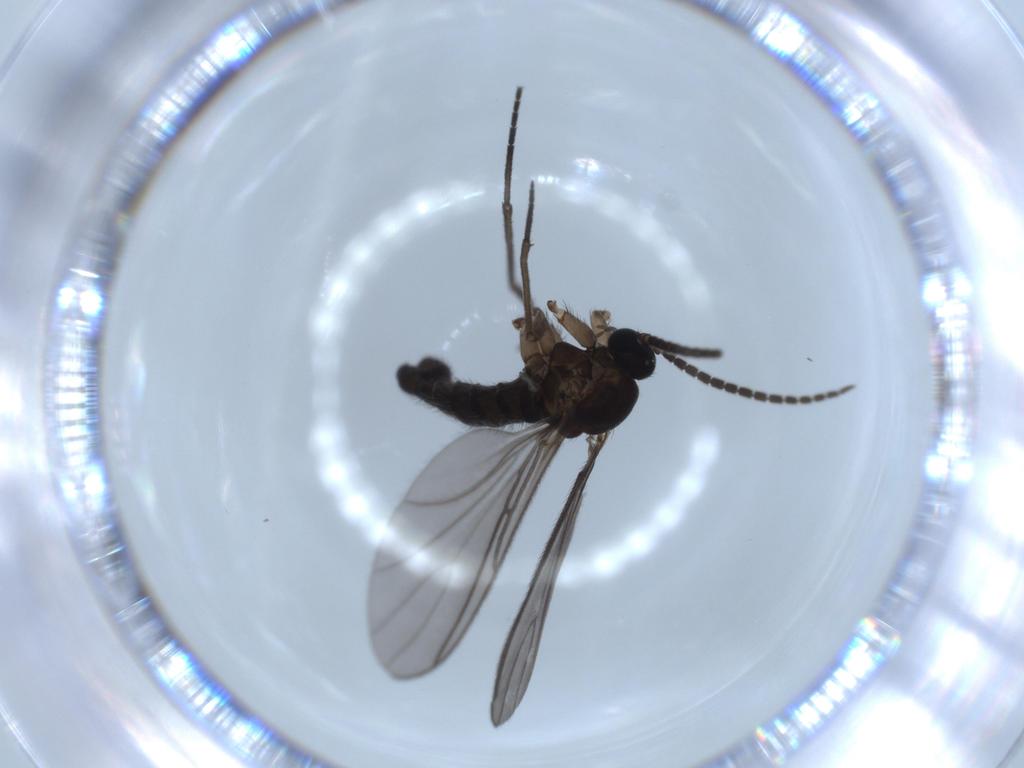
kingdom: Animalia
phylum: Arthropoda
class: Insecta
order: Diptera
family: Sciaridae
